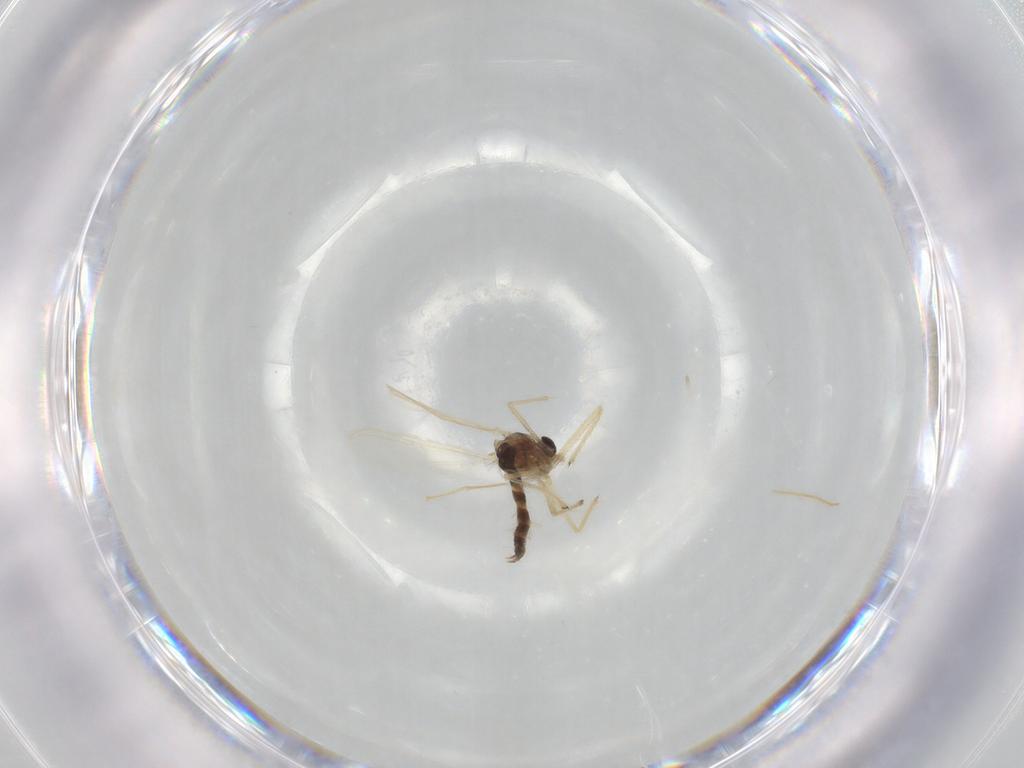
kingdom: Animalia
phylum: Arthropoda
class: Insecta
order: Diptera
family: Chironomidae
